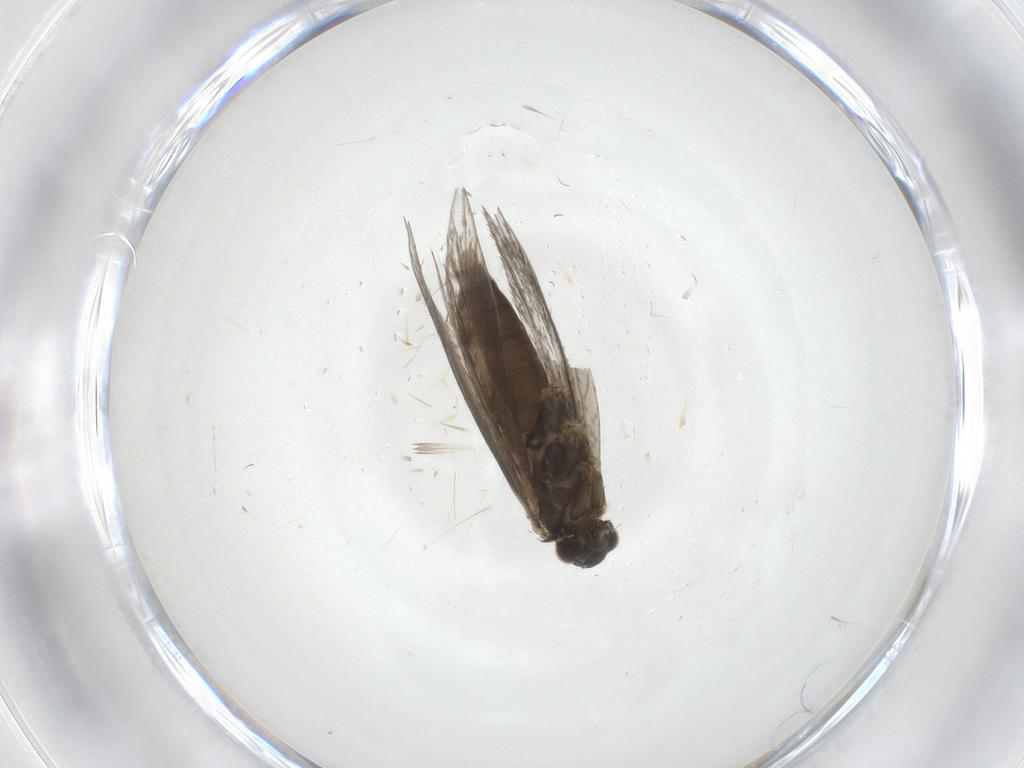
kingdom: Animalia
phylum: Arthropoda
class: Insecta
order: Lepidoptera
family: Micropterigidae
